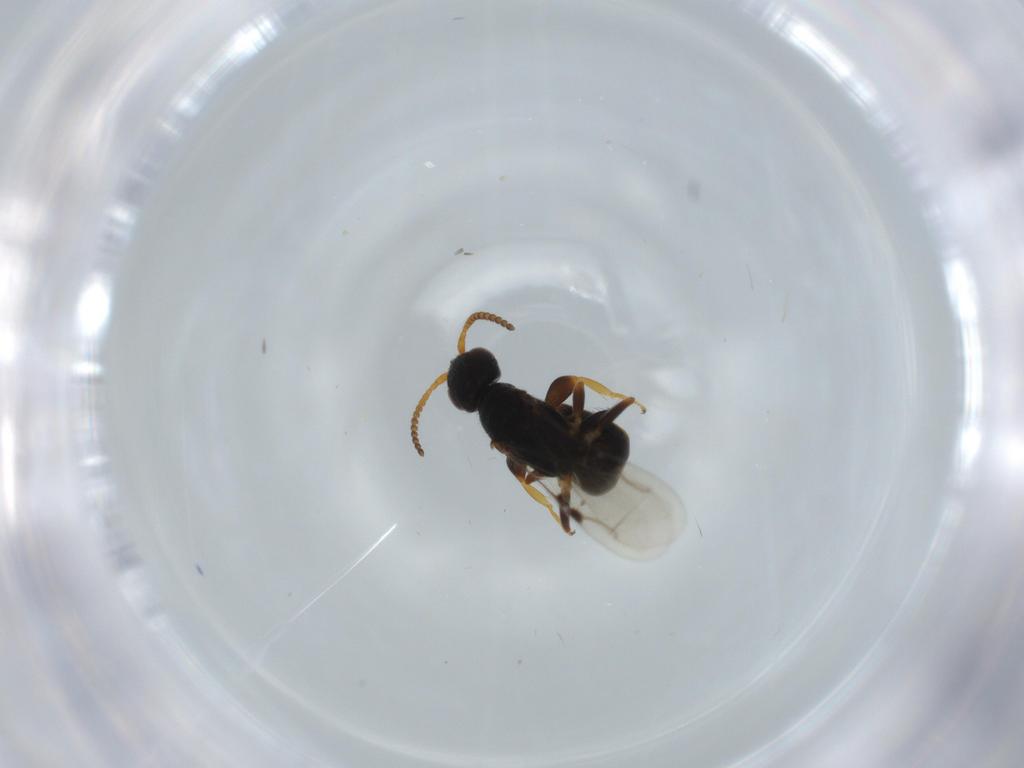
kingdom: Animalia
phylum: Arthropoda
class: Insecta
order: Hymenoptera
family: Bethylidae
